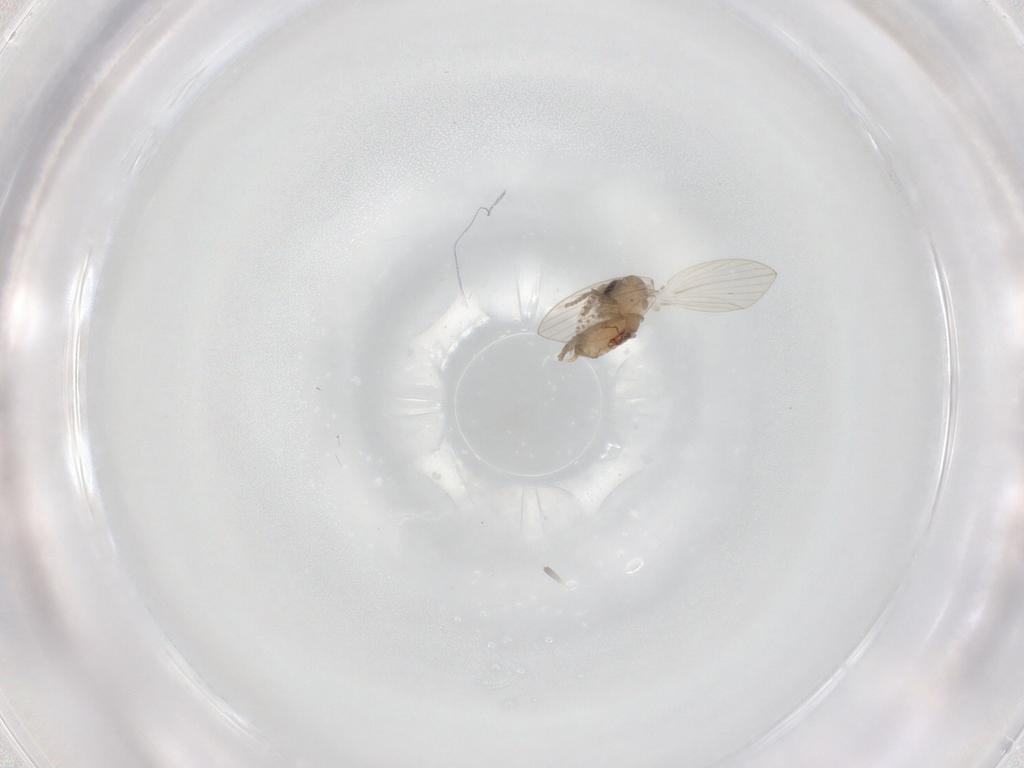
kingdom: Animalia
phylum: Arthropoda
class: Insecta
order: Diptera
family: Psychodidae
